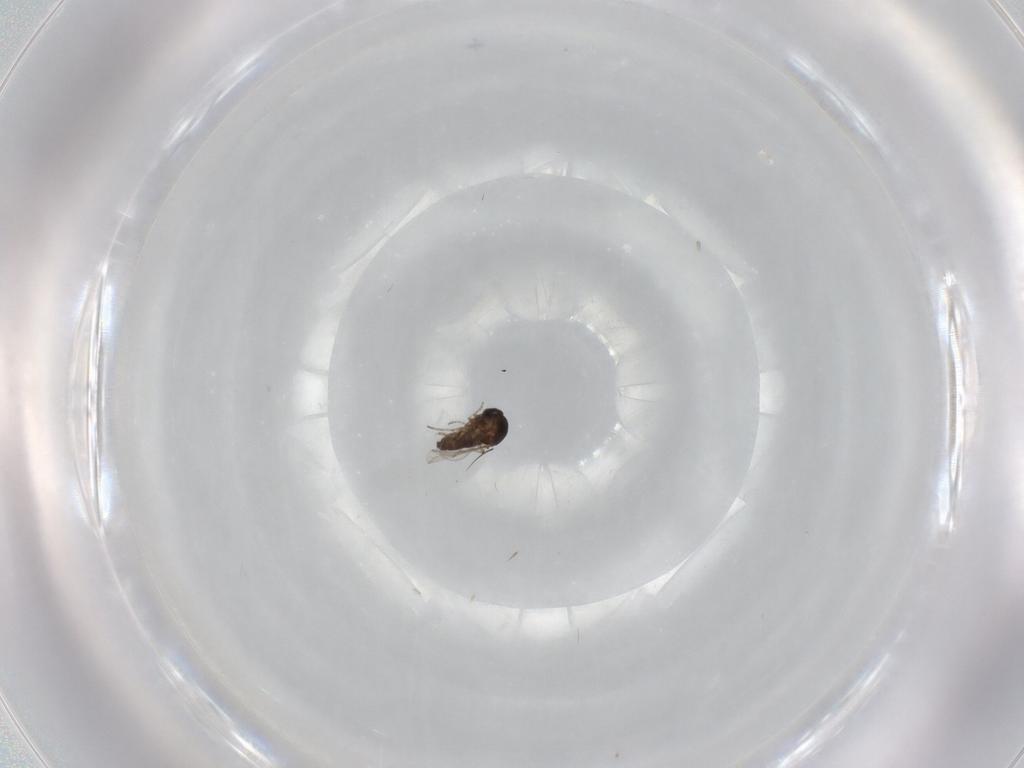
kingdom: Animalia
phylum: Arthropoda
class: Insecta
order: Diptera
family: Ceratopogonidae
